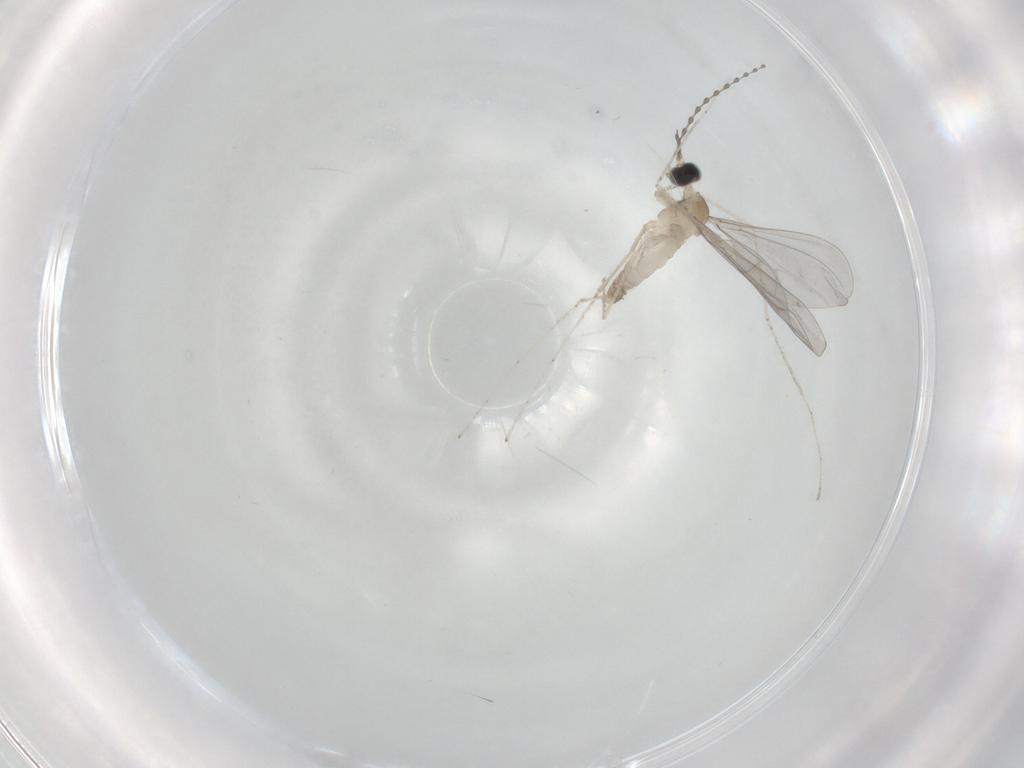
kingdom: Animalia
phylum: Arthropoda
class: Insecta
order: Diptera
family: Cecidomyiidae
